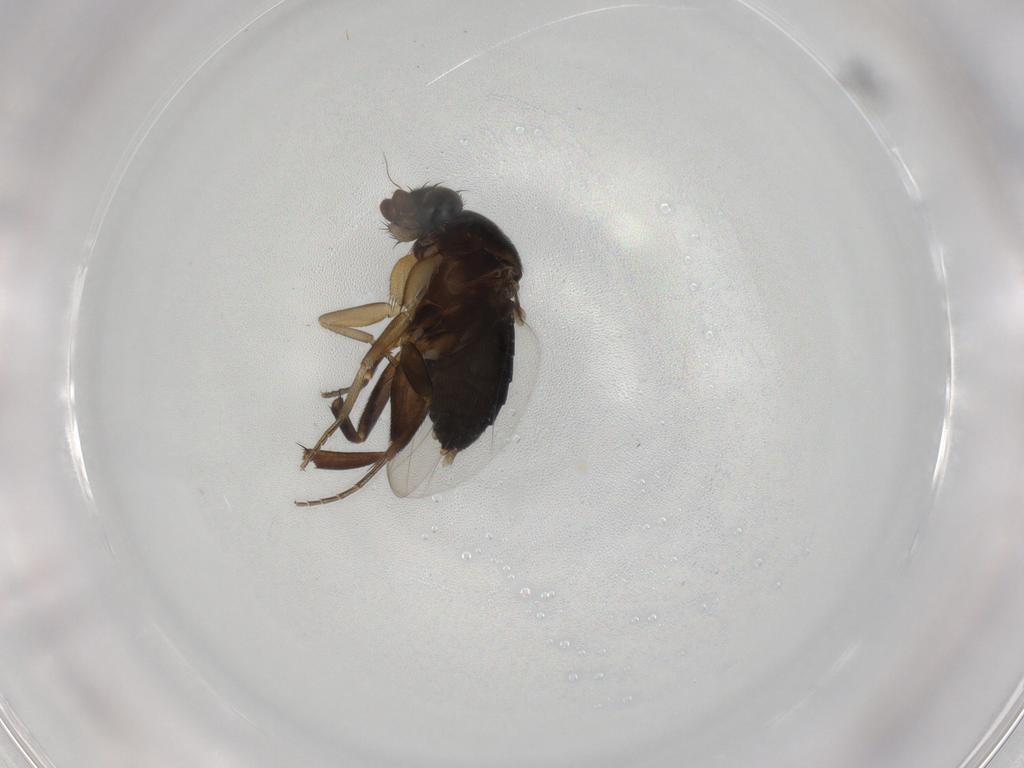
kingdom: Animalia
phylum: Arthropoda
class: Insecta
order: Diptera
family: Phoridae
